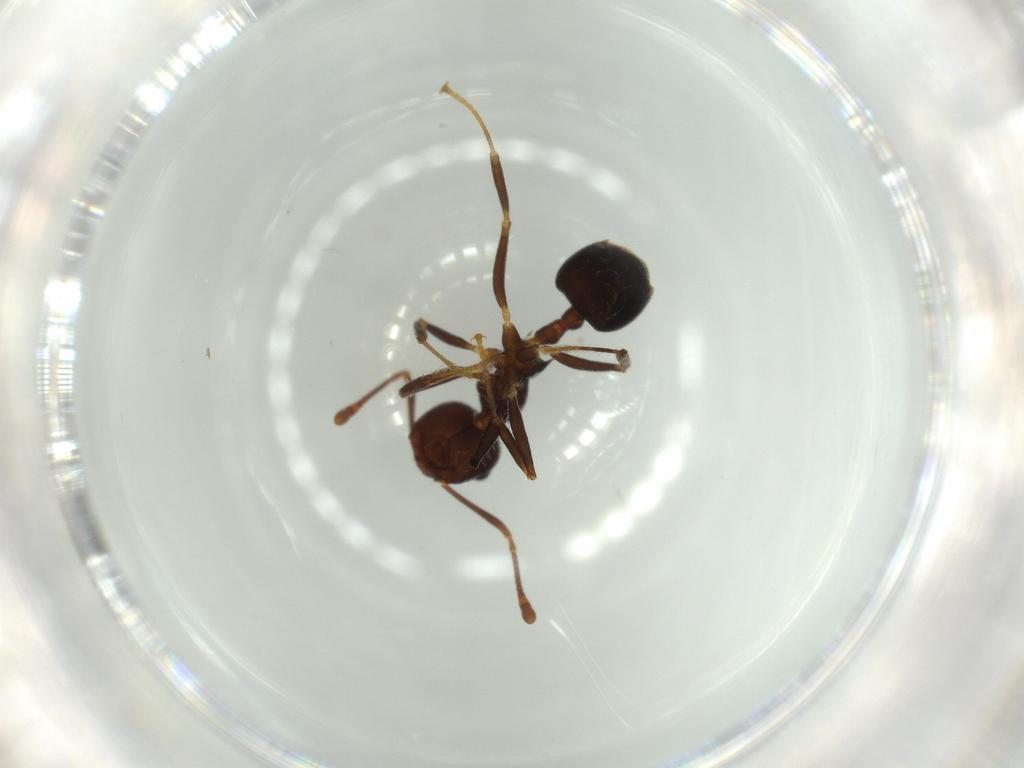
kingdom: Animalia
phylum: Arthropoda
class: Insecta
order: Hymenoptera
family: Formicidae
